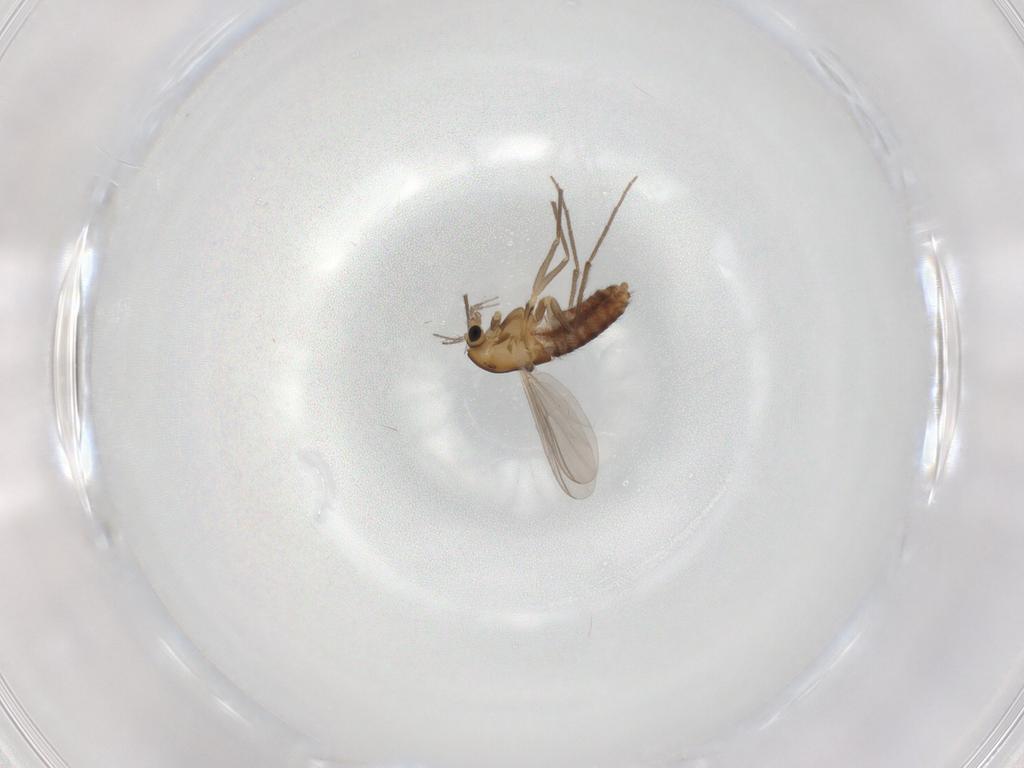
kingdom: Animalia
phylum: Arthropoda
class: Insecta
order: Diptera
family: Chironomidae
